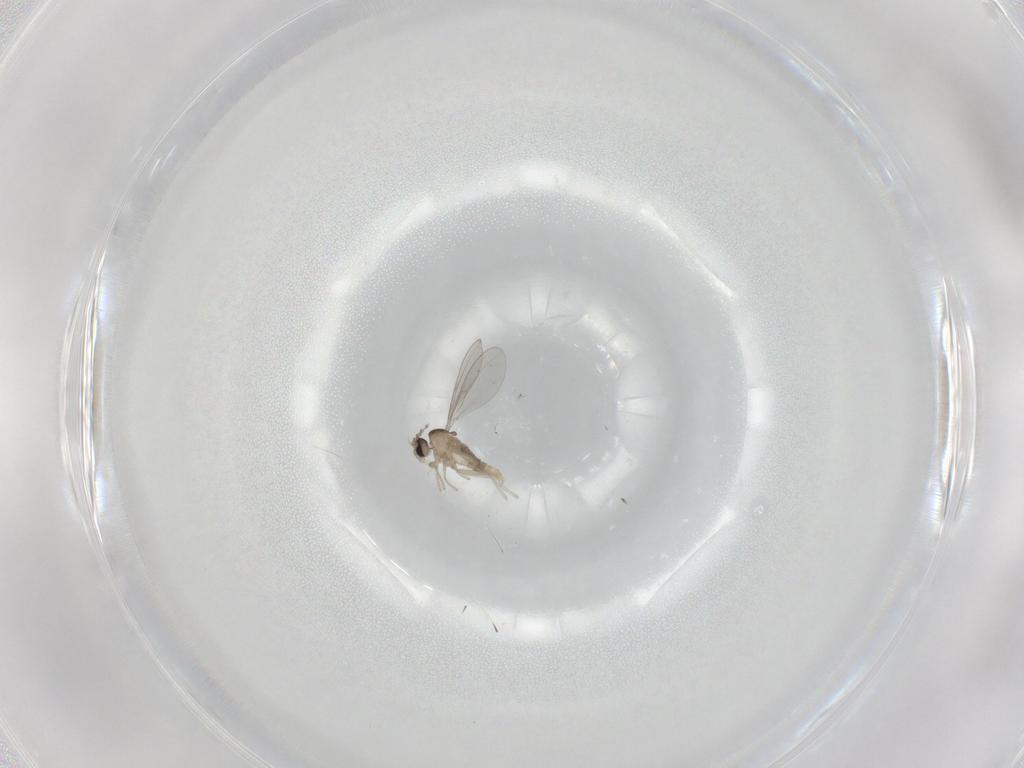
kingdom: Animalia
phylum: Arthropoda
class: Insecta
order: Diptera
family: Cecidomyiidae
